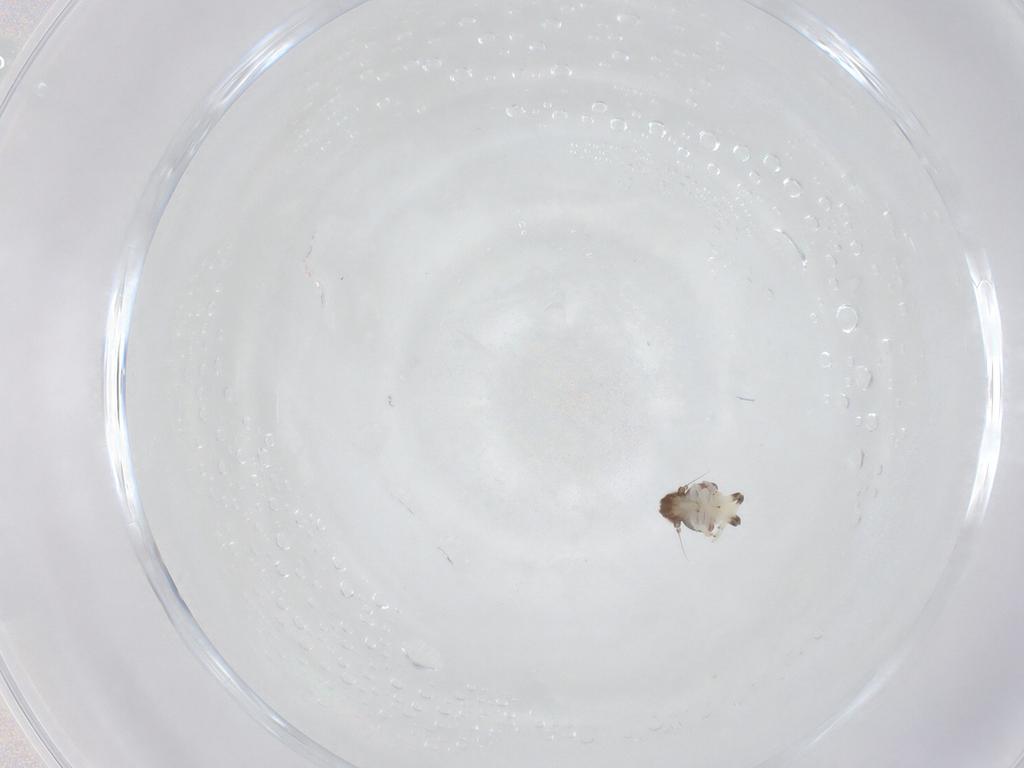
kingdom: Animalia
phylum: Arthropoda
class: Insecta
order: Hemiptera
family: Nogodinidae
